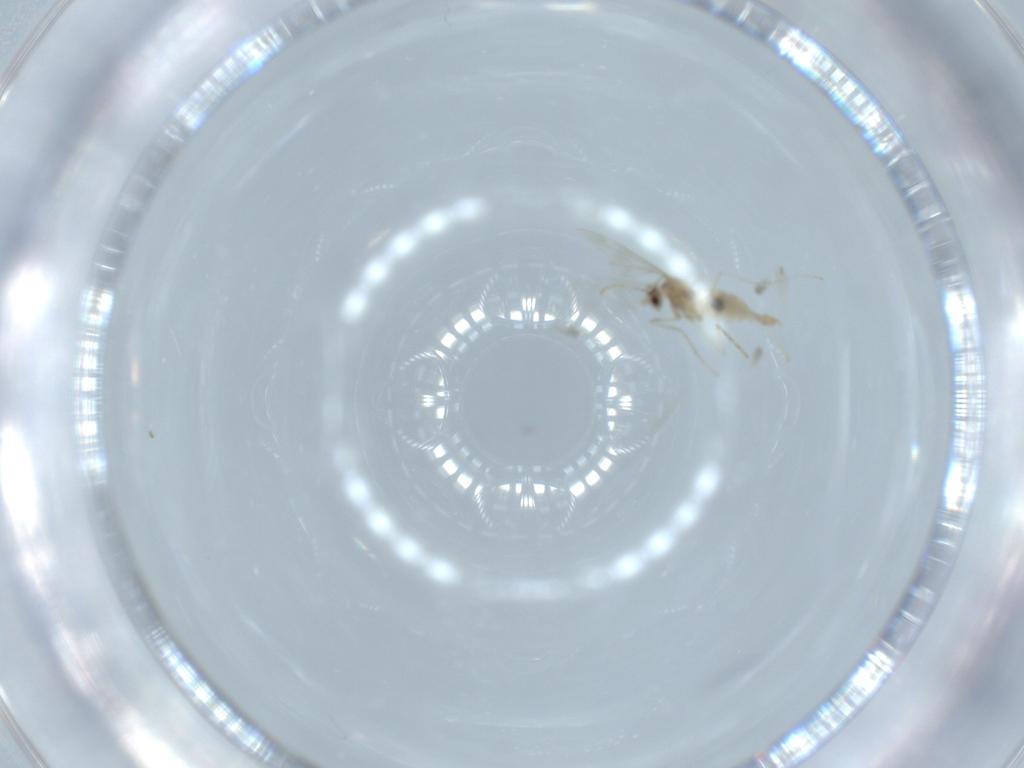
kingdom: Animalia
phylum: Arthropoda
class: Insecta
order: Diptera
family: Cecidomyiidae
